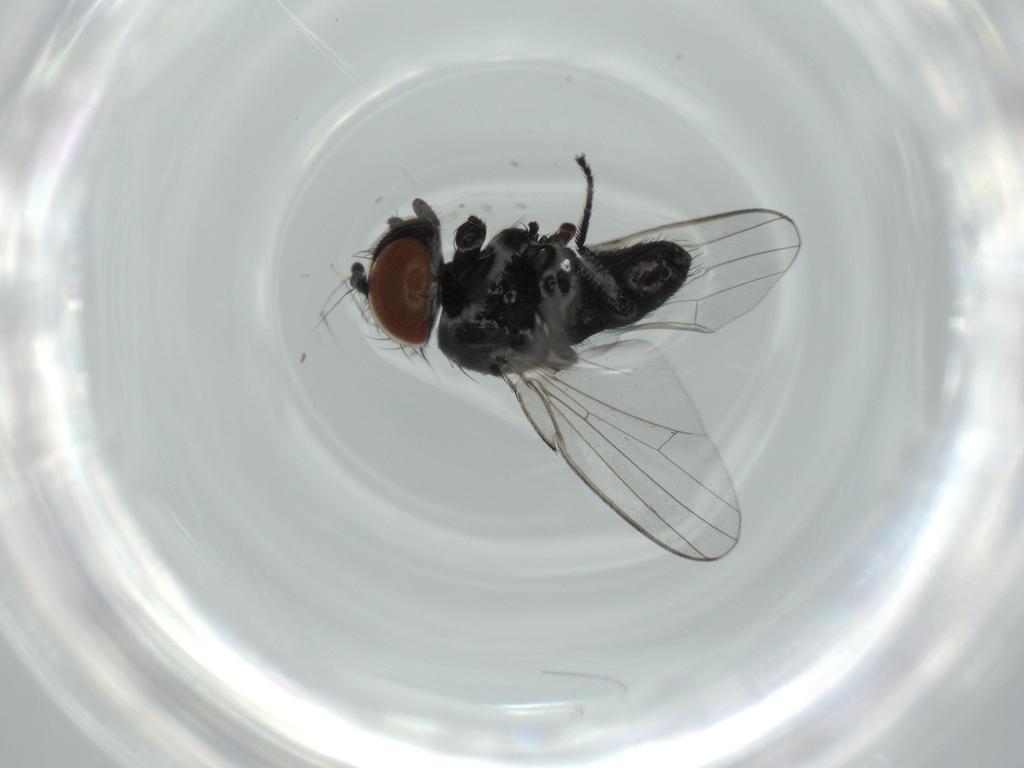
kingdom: Animalia
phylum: Arthropoda
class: Insecta
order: Diptera
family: Milichiidae
